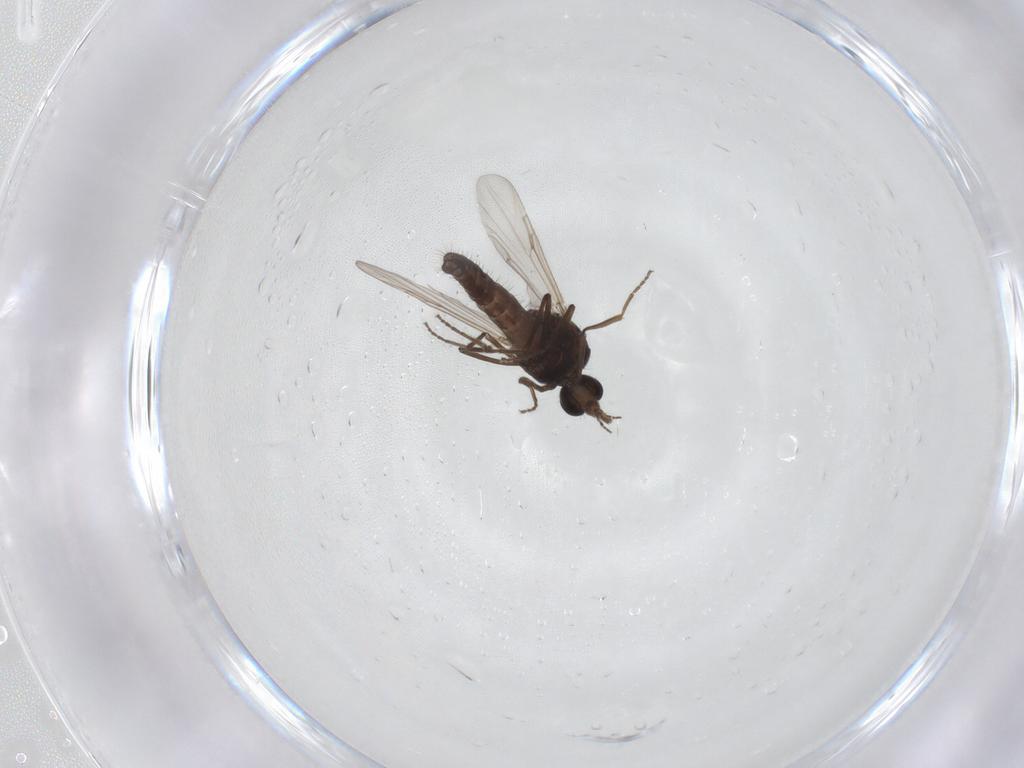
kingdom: Animalia
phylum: Arthropoda
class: Insecta
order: Diptera
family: Ceratopogonidae
